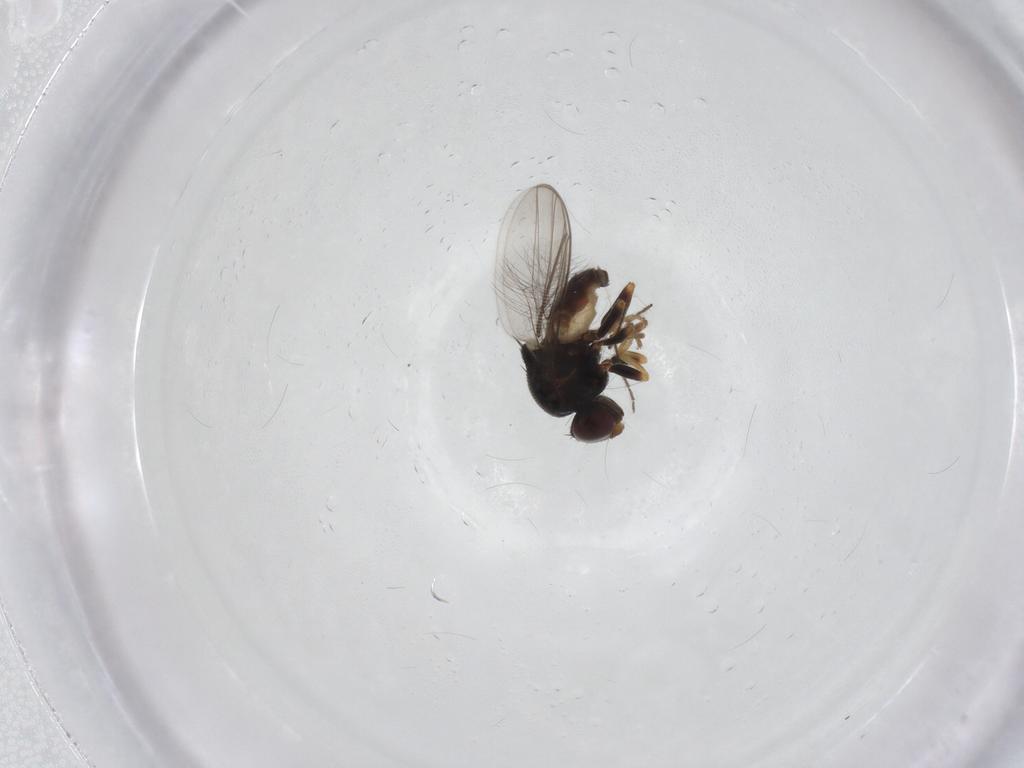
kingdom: Animalia
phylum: Arthropoda
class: Insecta
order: Diptera
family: Chloropidae
